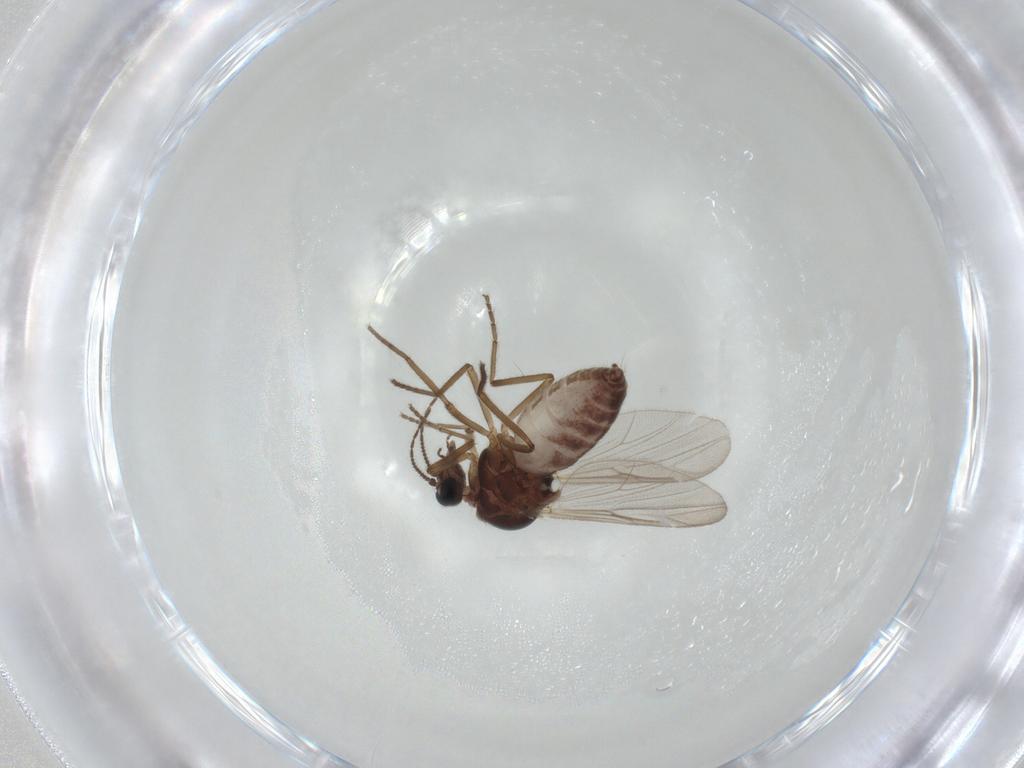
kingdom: Animalia
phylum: Arthropoda
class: Insecta
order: Diptera
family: Ceratopogonidae
